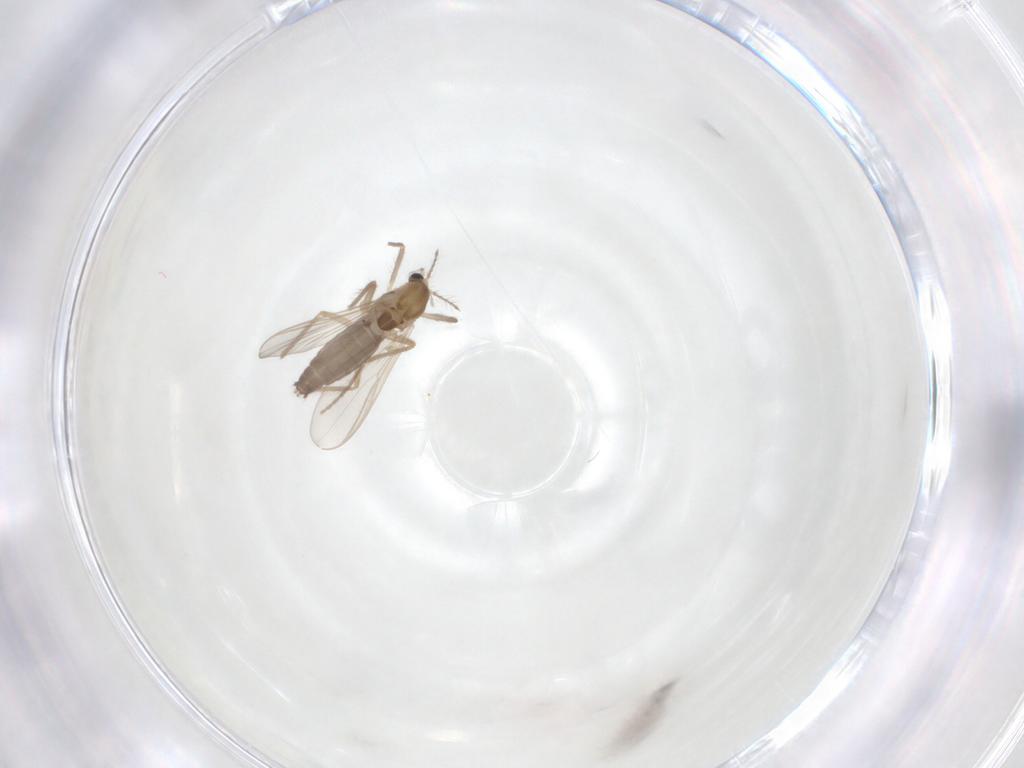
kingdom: Animalia
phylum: Arthropoda
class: Insecta
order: Diptera
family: Chironomidae
